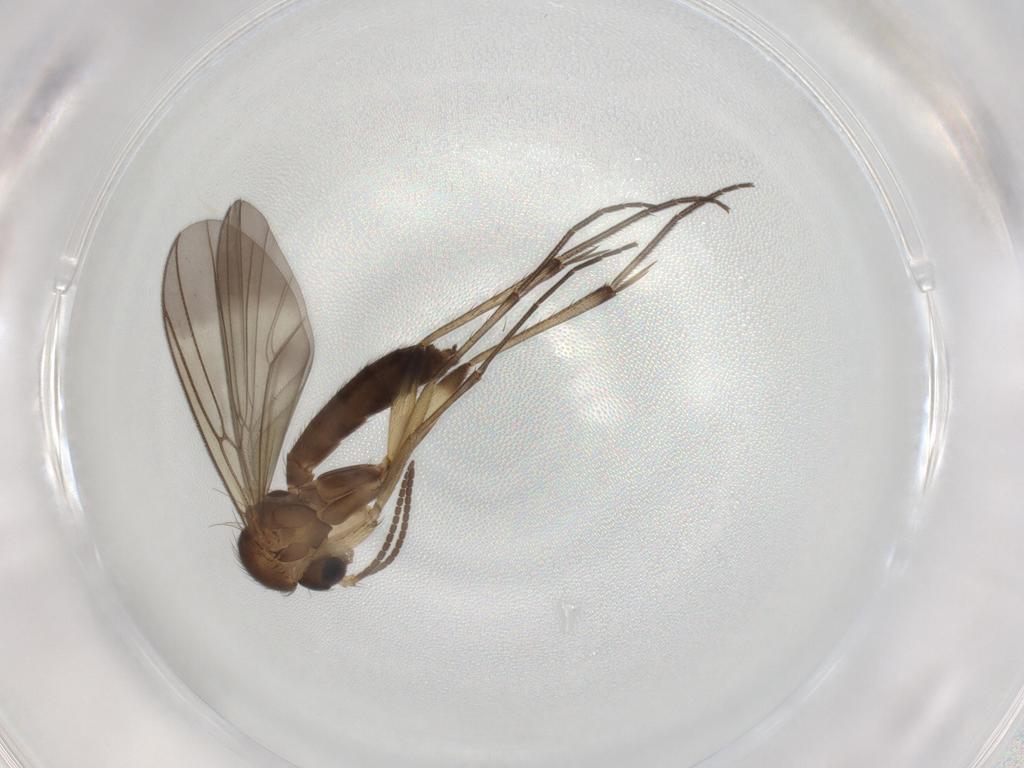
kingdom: Animalia
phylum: Arthropoda
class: Insecta
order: Diptera
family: Mycetophilidae
